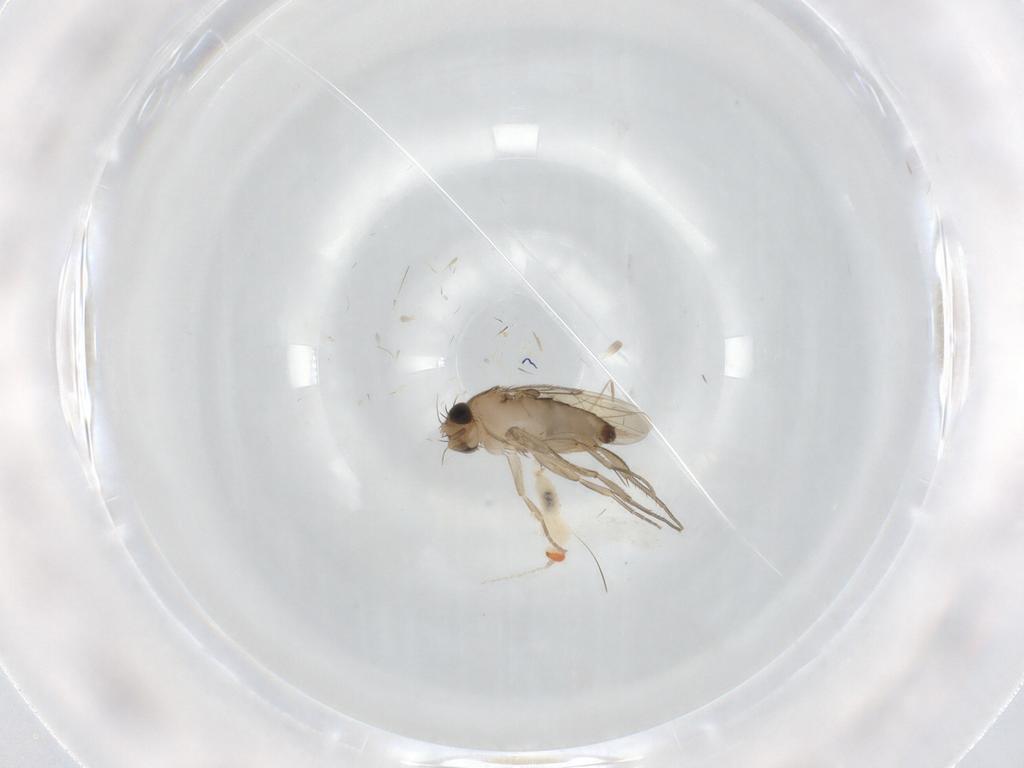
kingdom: Animalia
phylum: Arthropoda
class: Insecta
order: Diptera
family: Phoridae
